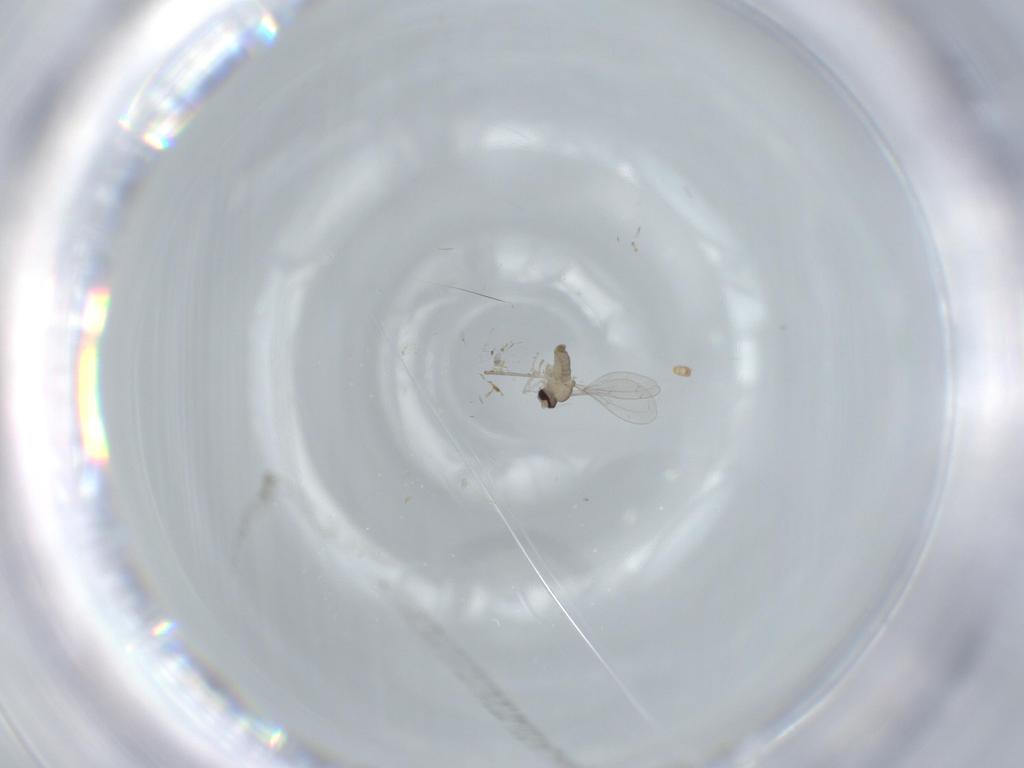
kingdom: Animalia
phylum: Arthropoda
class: Insecta
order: Diptera
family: Cecidomyiidae
